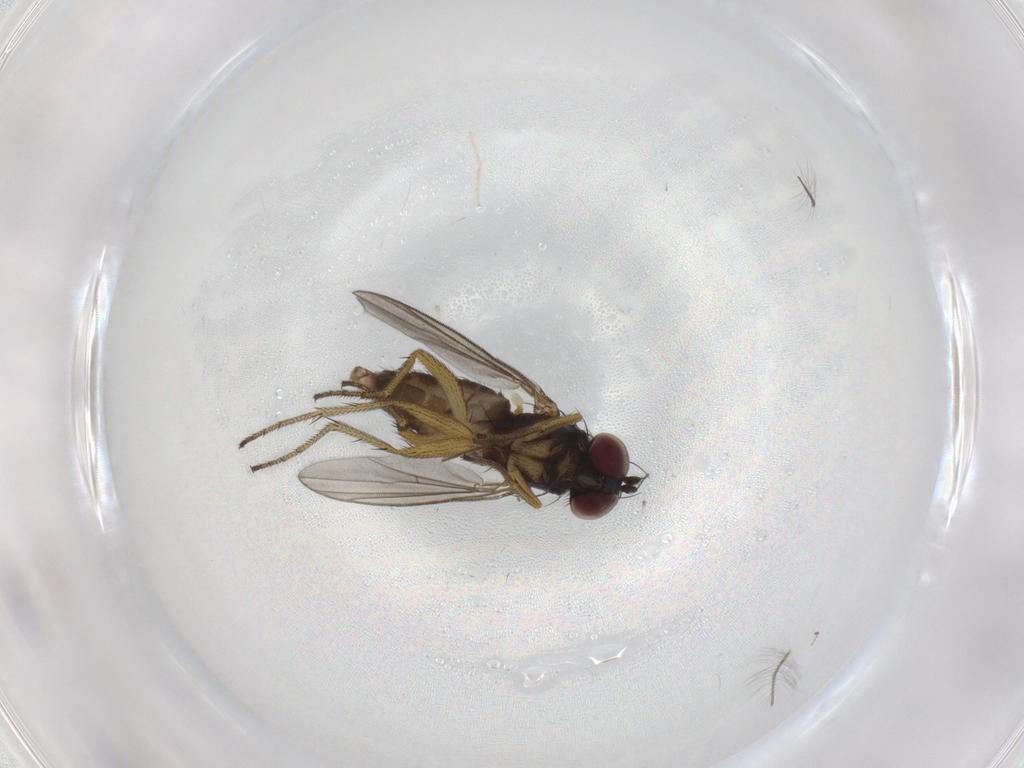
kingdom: Animalia
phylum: Arthropoda
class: Insecta
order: Diptera
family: Dolichopodidae
